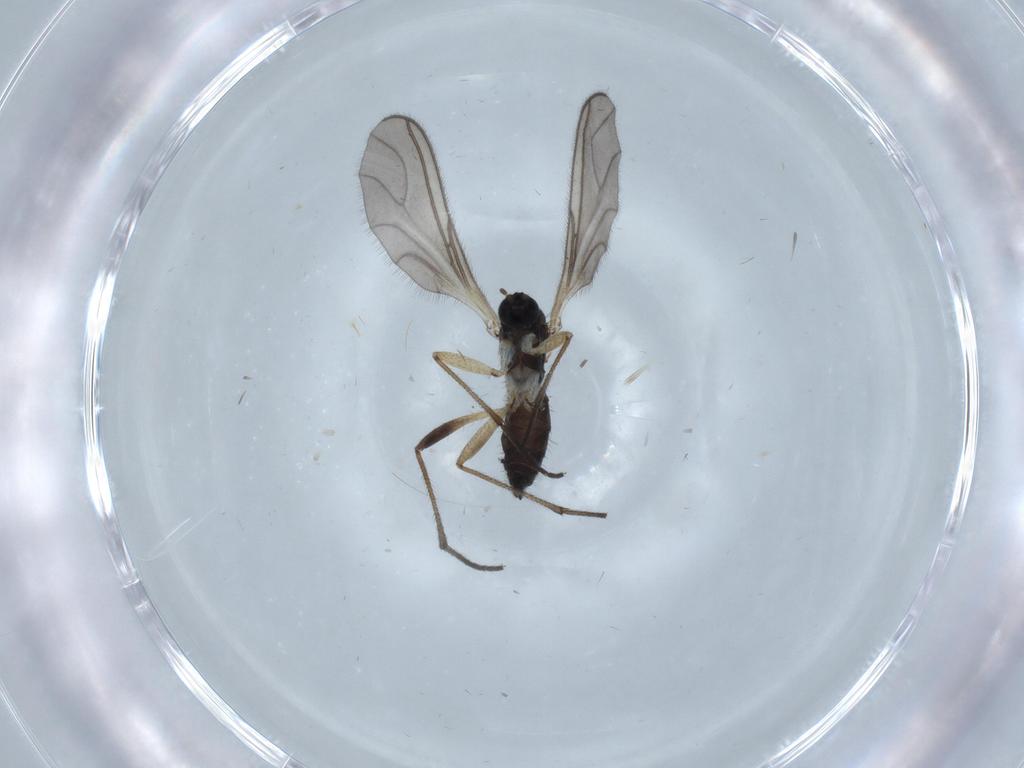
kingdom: Animalia
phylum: Arthropoda
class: Insecta
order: Diptera
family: Sciaridae
